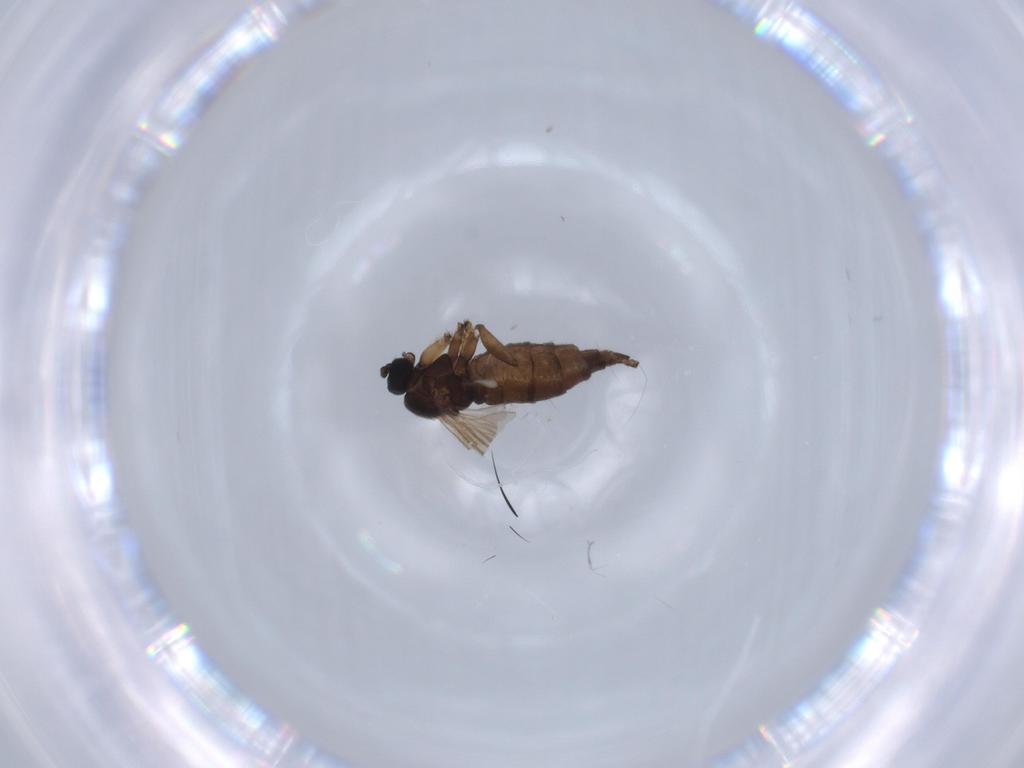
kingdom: Animalia
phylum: Arthropoda
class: Insecta
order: Diptera
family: Sciaridae
